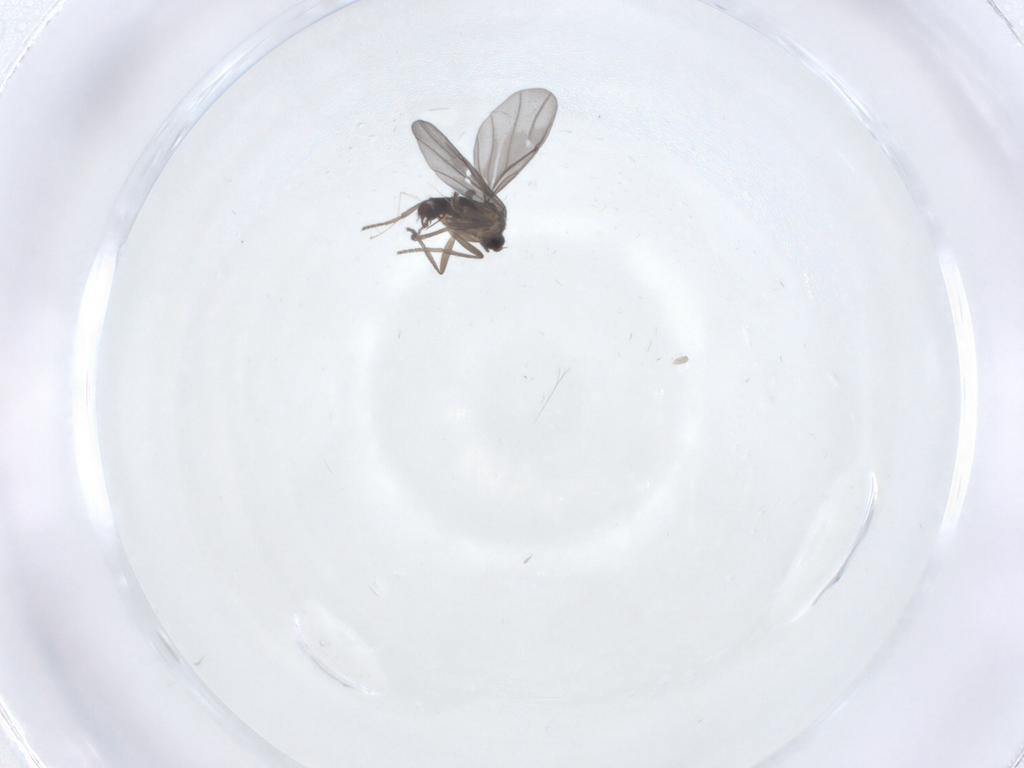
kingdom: Animalia
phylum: Arthropoda
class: Insecta
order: Diptera
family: Phoridae
